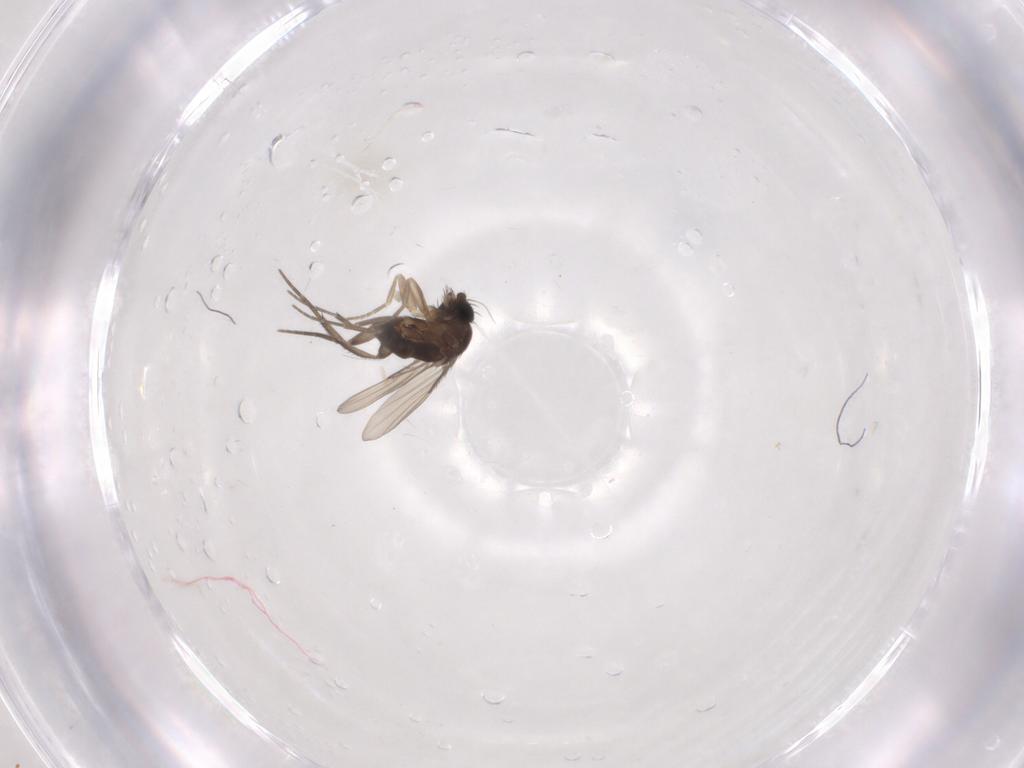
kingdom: Animalia
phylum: Arthropoda
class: Insecta
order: Diptera
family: Phoridae
